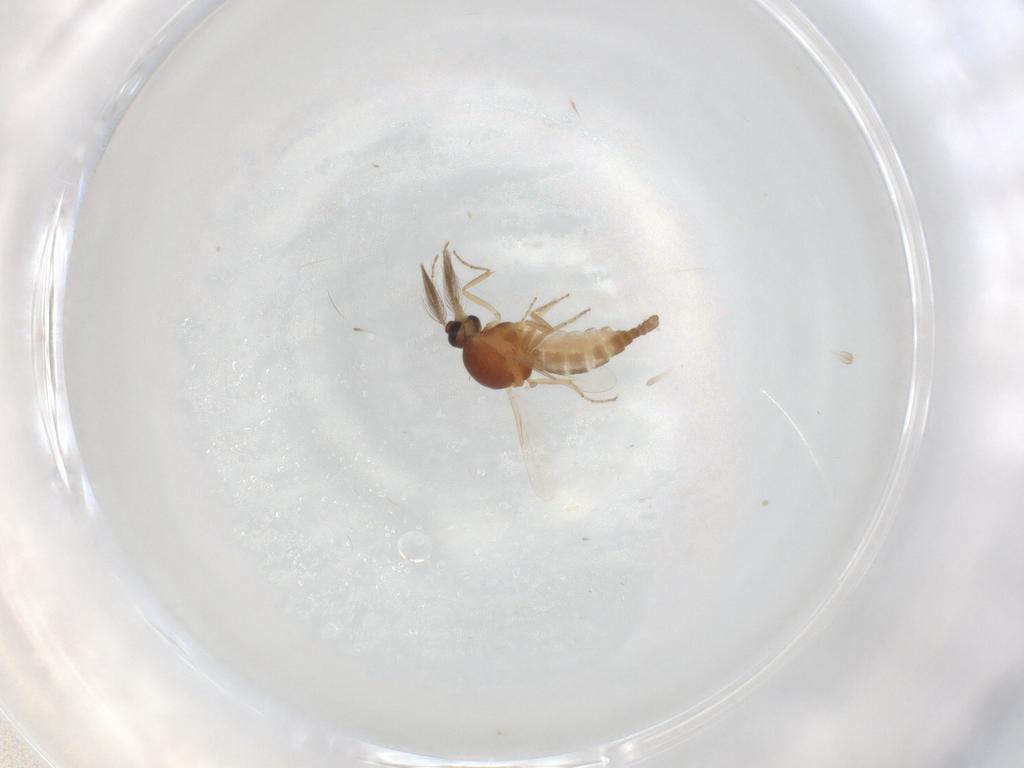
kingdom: Animalia
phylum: Arthropoda
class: Insecta
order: Diptera
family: Ceratopogonidae
